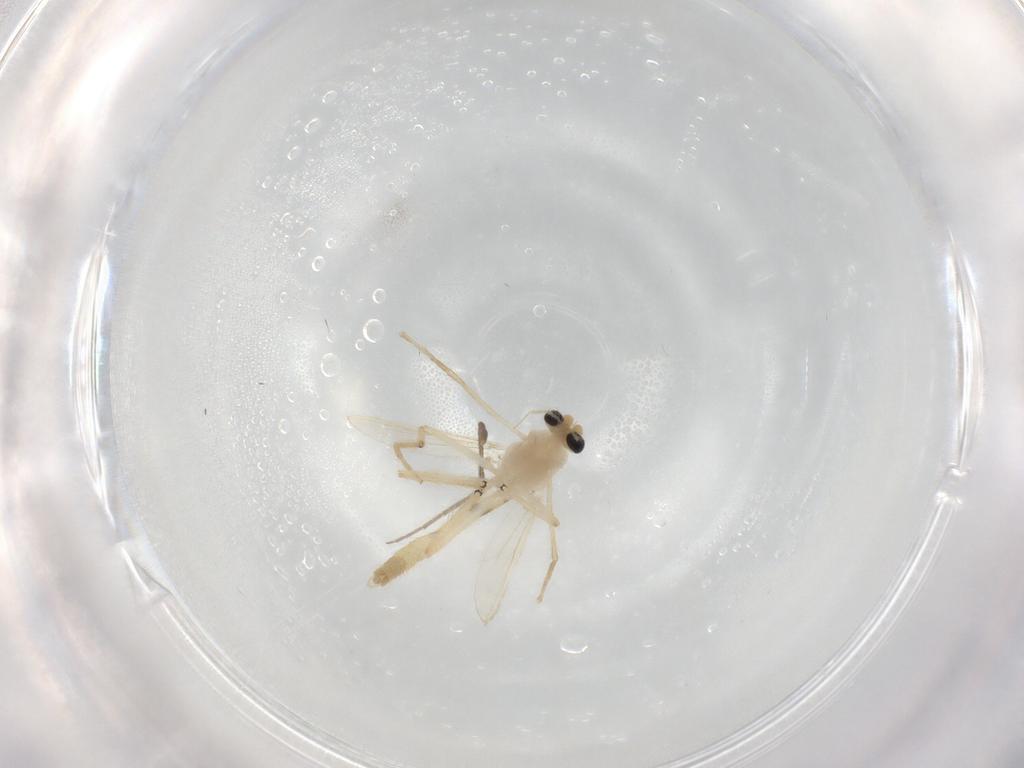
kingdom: Animalia
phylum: Arthropoda
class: Insecta
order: Diptera
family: Chironomidae
